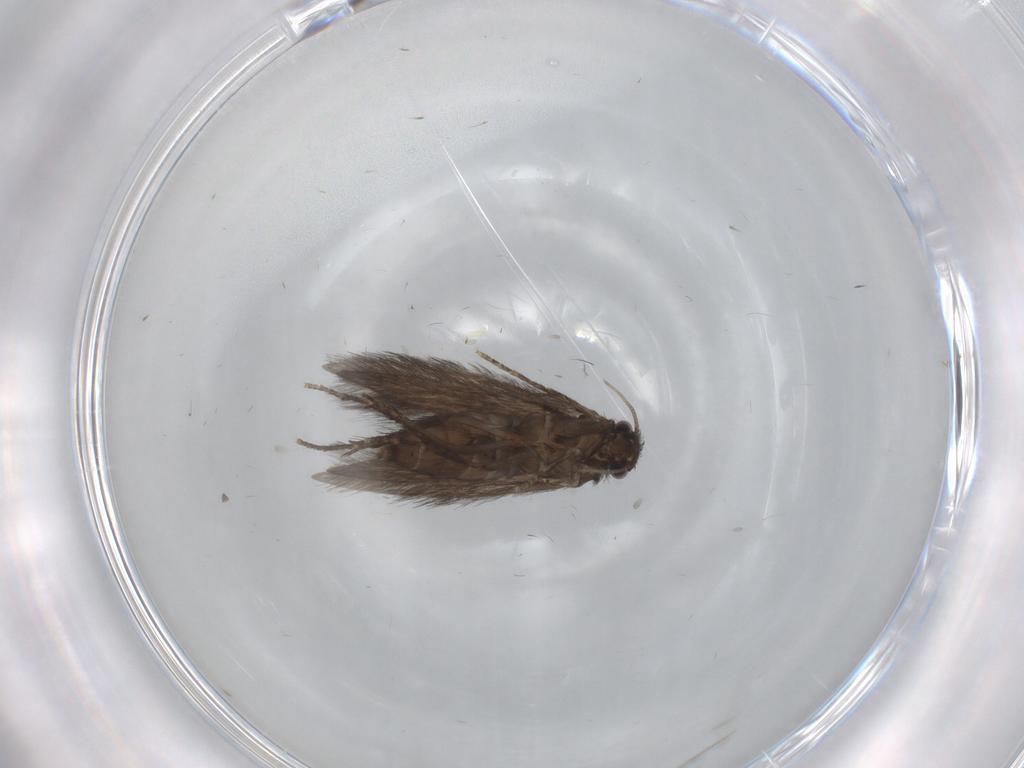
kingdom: Animalia
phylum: Arthropoda
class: Insecta
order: Trichoptera
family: Hydroptilidae
